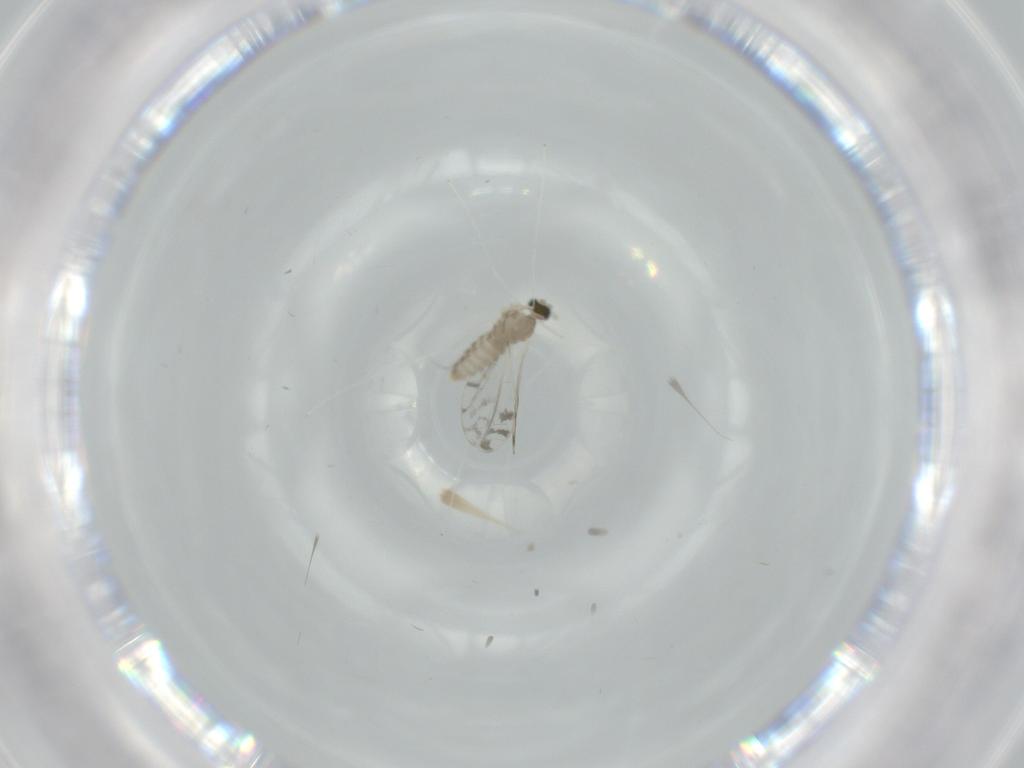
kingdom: Animalia
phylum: Arthropoda
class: Insecta
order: Diptera
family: Cecidomyiidae
